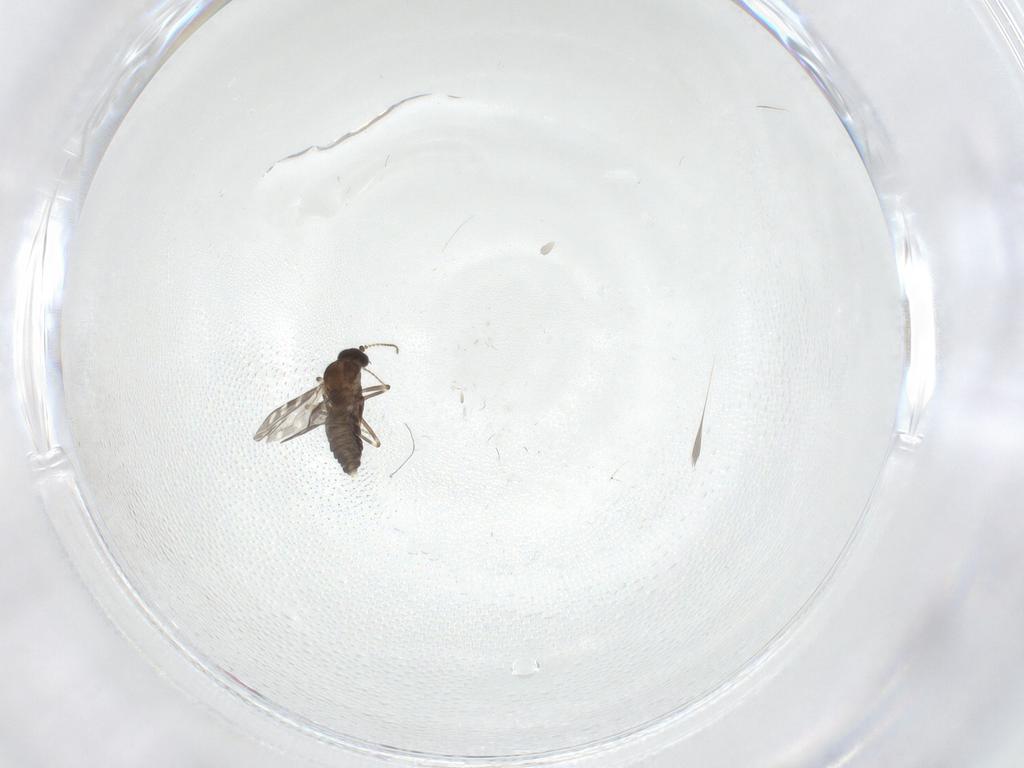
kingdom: Animalia
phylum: Arthropoda
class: Insecta
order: Diptera
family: Ceratopogonidae
